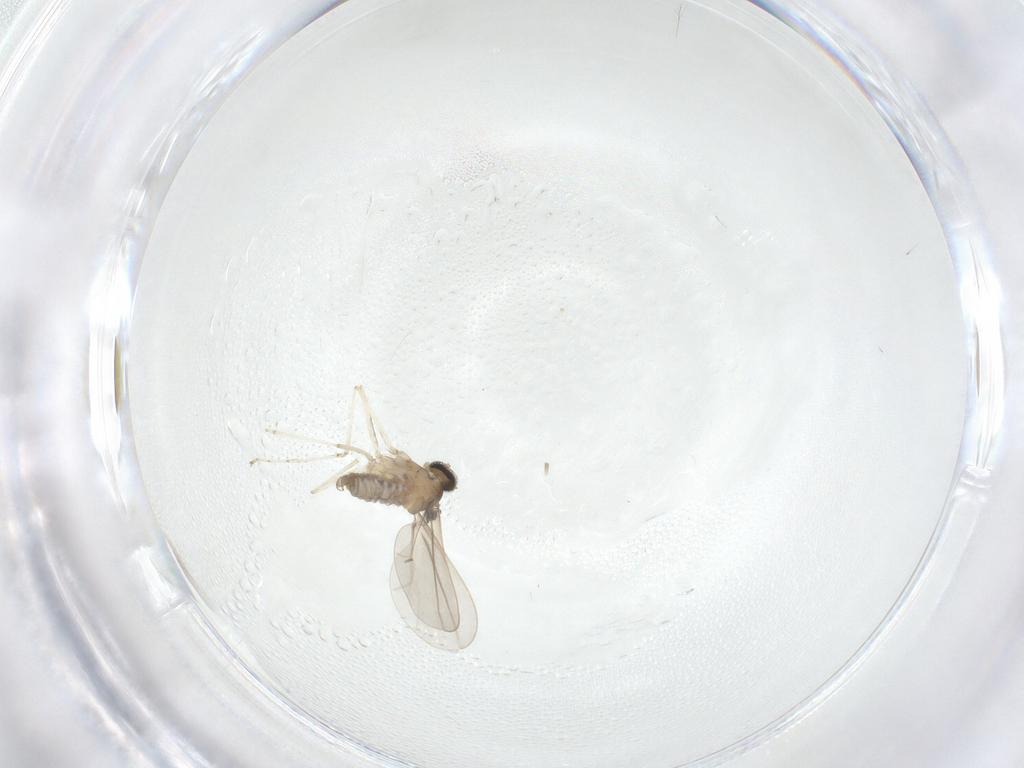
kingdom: Animalia
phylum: Arthropoda
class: Insecta
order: Diptera
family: Cecidomyiidae
